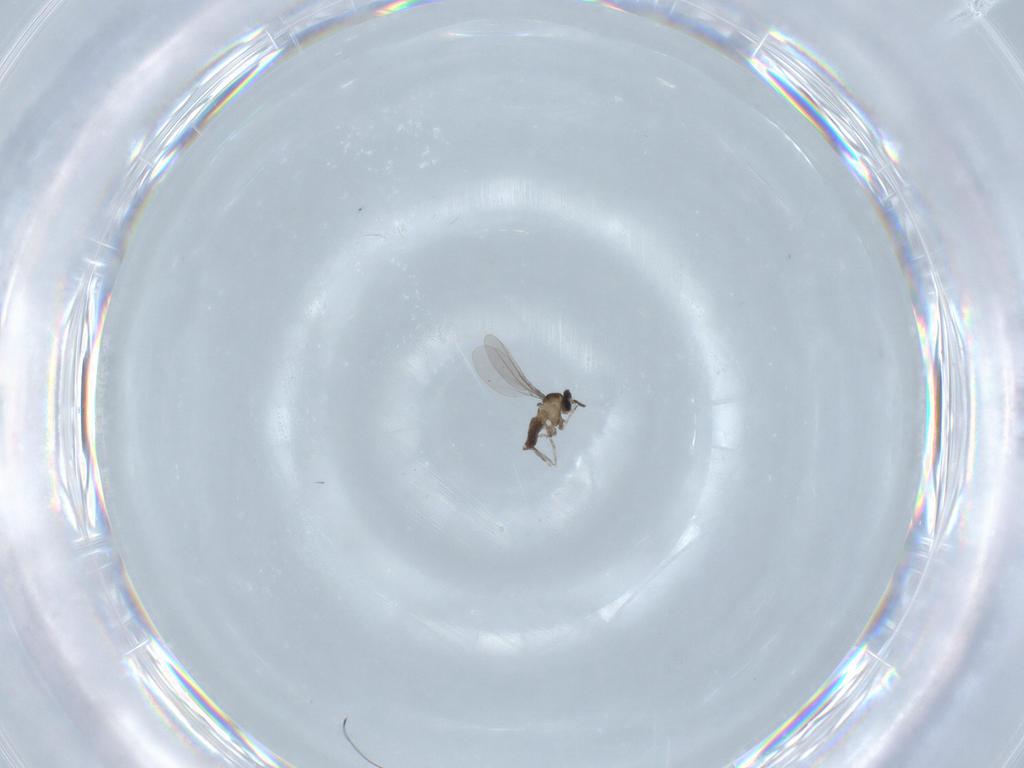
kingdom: Animalia
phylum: Arthropoda
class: Insecta
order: Diptera
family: Cecidomyiidae
